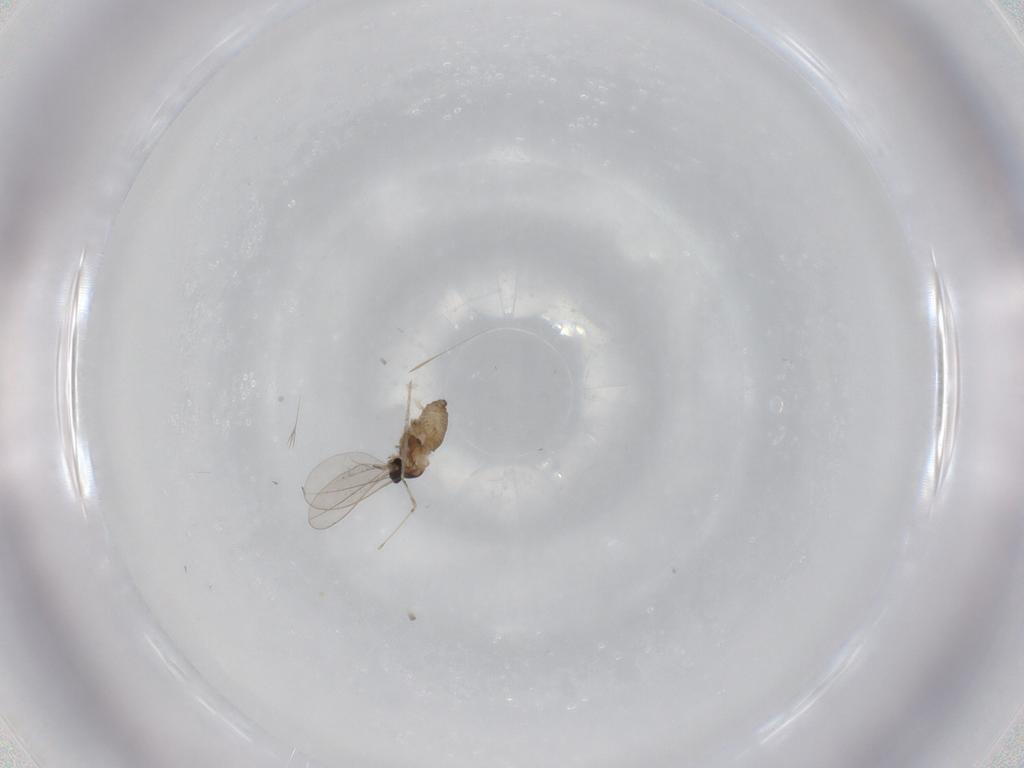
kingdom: Animalia
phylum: Arthropoda
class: Insecta
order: Diptera
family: Cecidomyiidae
